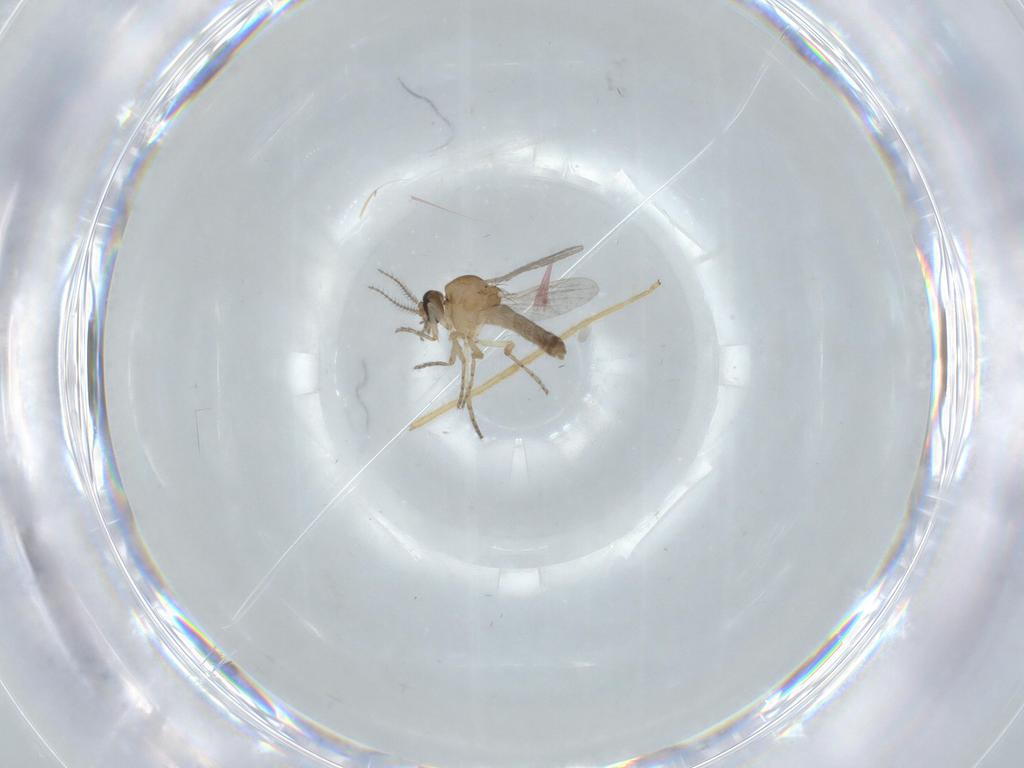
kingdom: Animalia
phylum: Arthropoda
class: Insecta
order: Diptera
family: Ceratopogonidae
